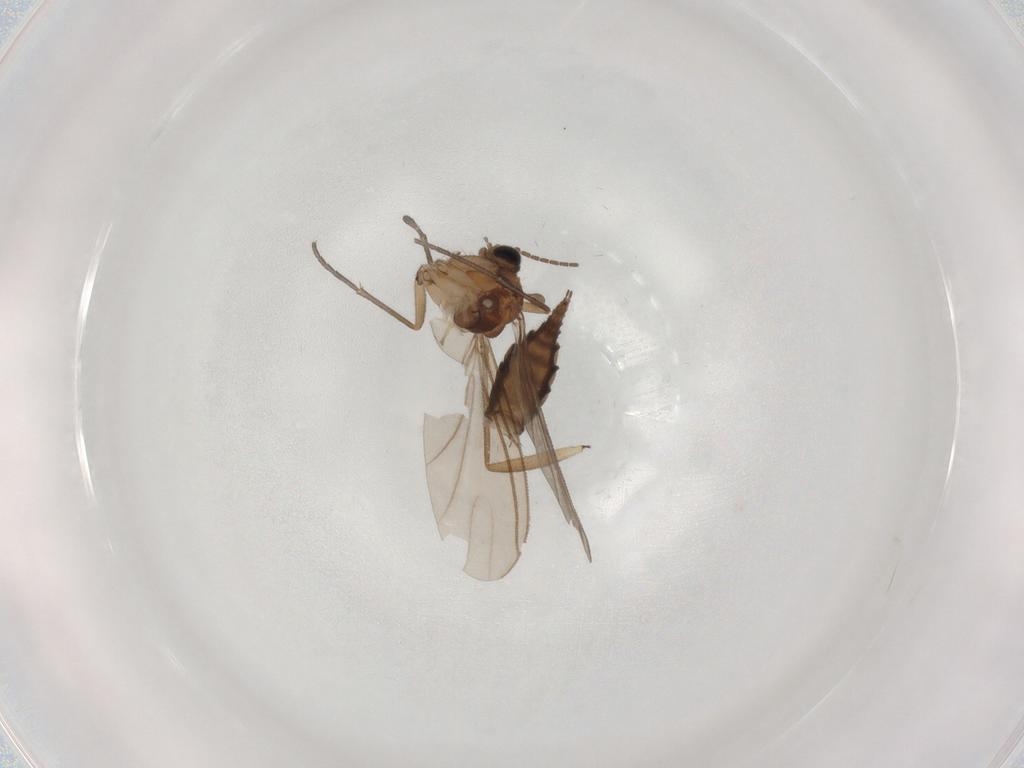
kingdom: Animalia
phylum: Arthropoda
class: Insecta
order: Diptera
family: Sciaridae
